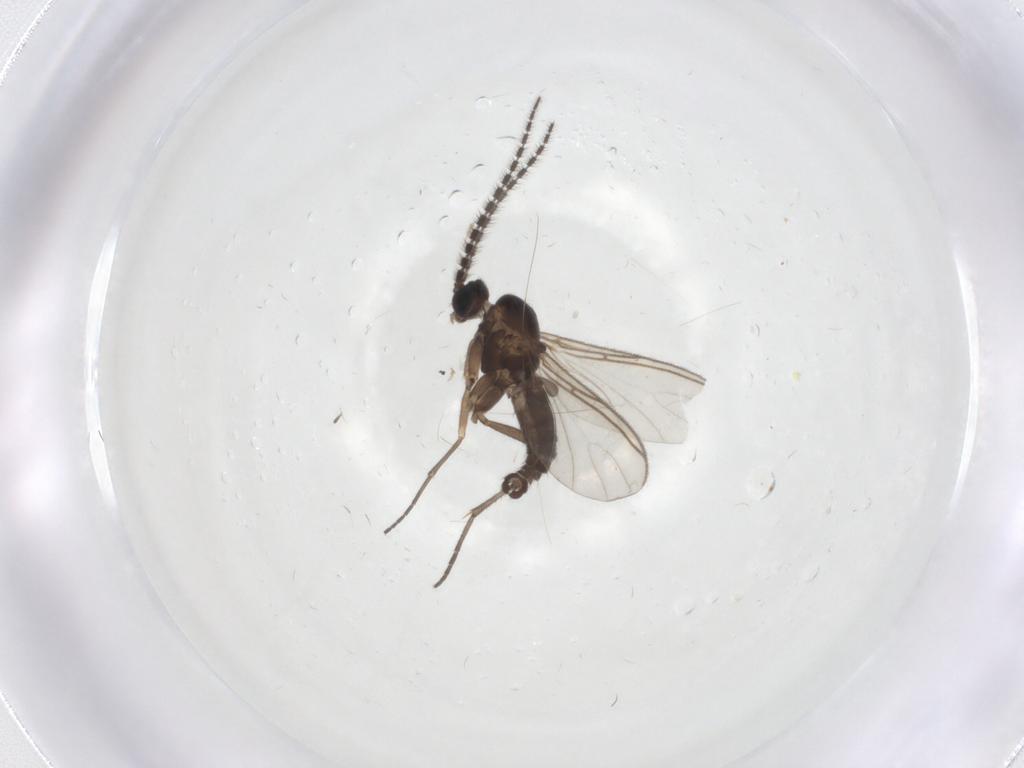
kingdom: Animalia
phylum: Arthropoda
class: Insecta
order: Diptera
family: Sciaridae
